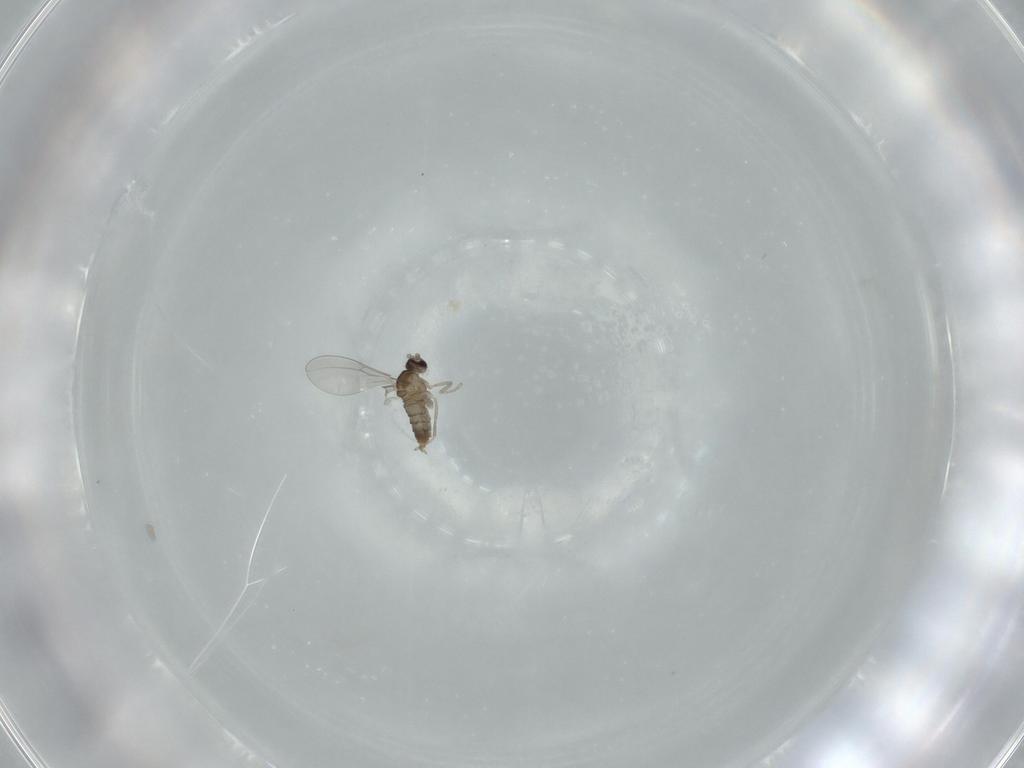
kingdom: Animalia
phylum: Arthropoda
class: Insecta
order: Diptera
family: Cecidomyiidae
